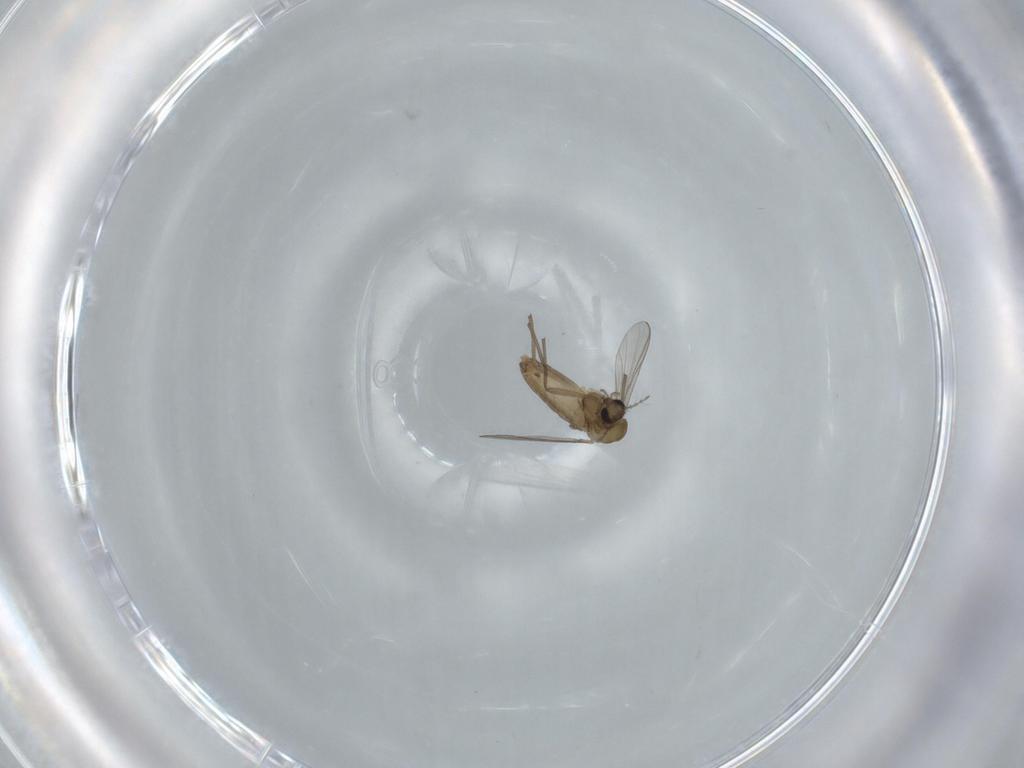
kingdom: Animalia
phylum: Arthropoda
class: Insecta
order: Diptera
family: Chironomidae
